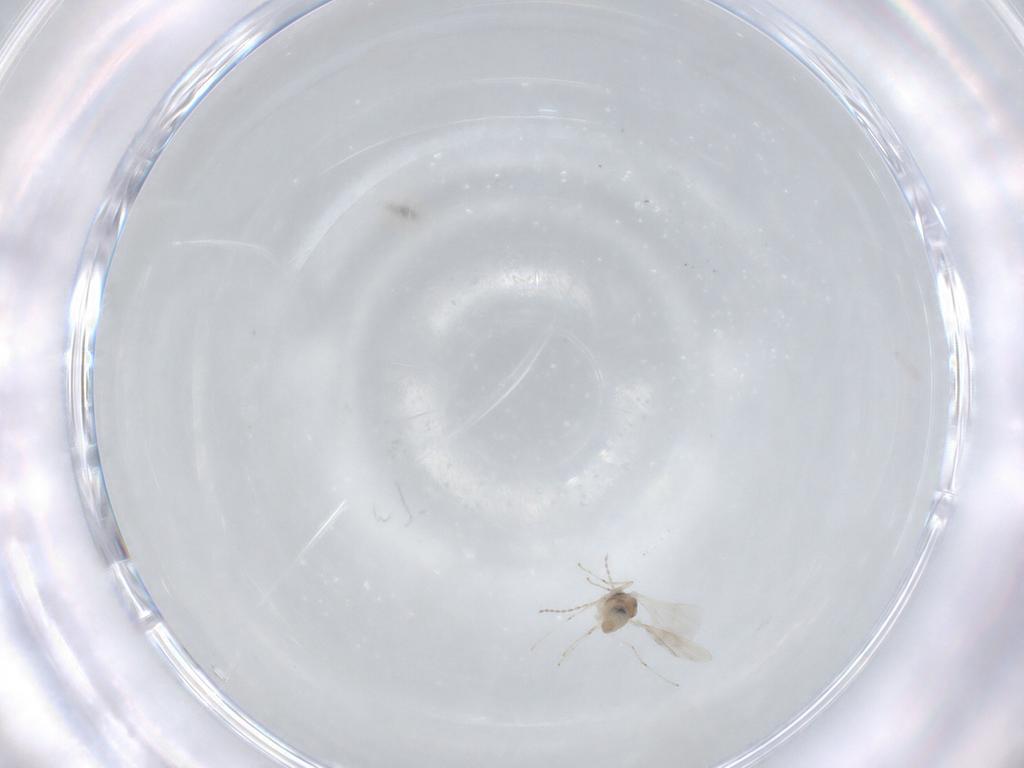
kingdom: Animalia
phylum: Arthropoda
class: Insecta
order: Diptera
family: Cecidomyiidae
